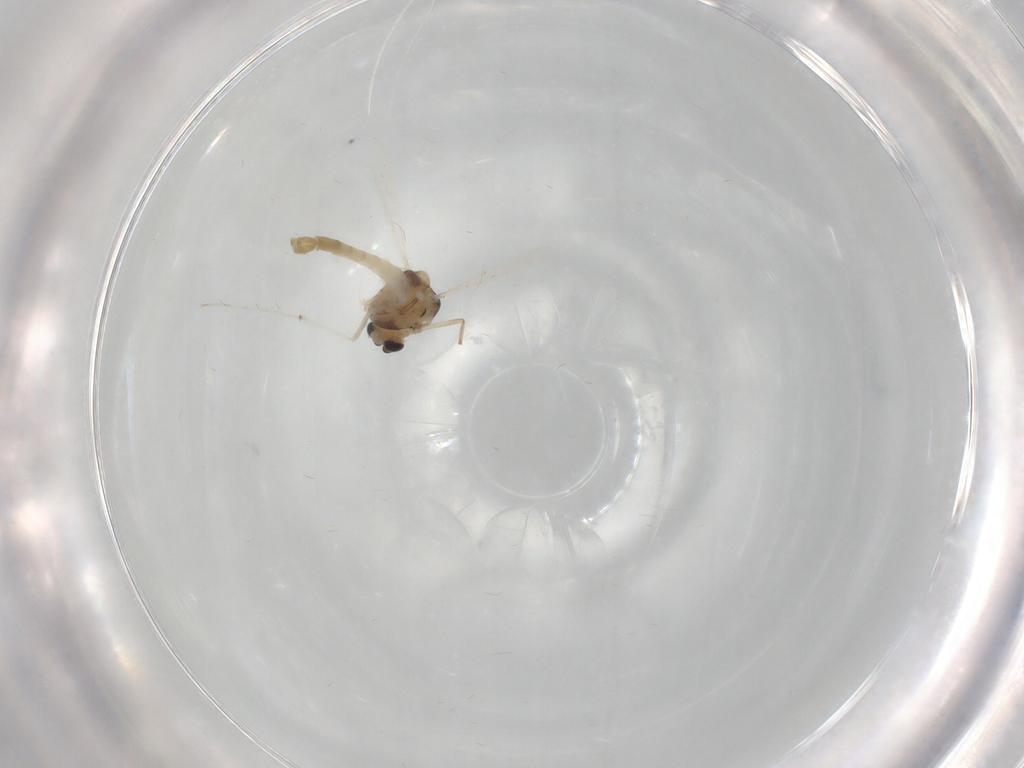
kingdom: Animalia
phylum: Arthropoda
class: Insecta
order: Diptera
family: Chironomidae
